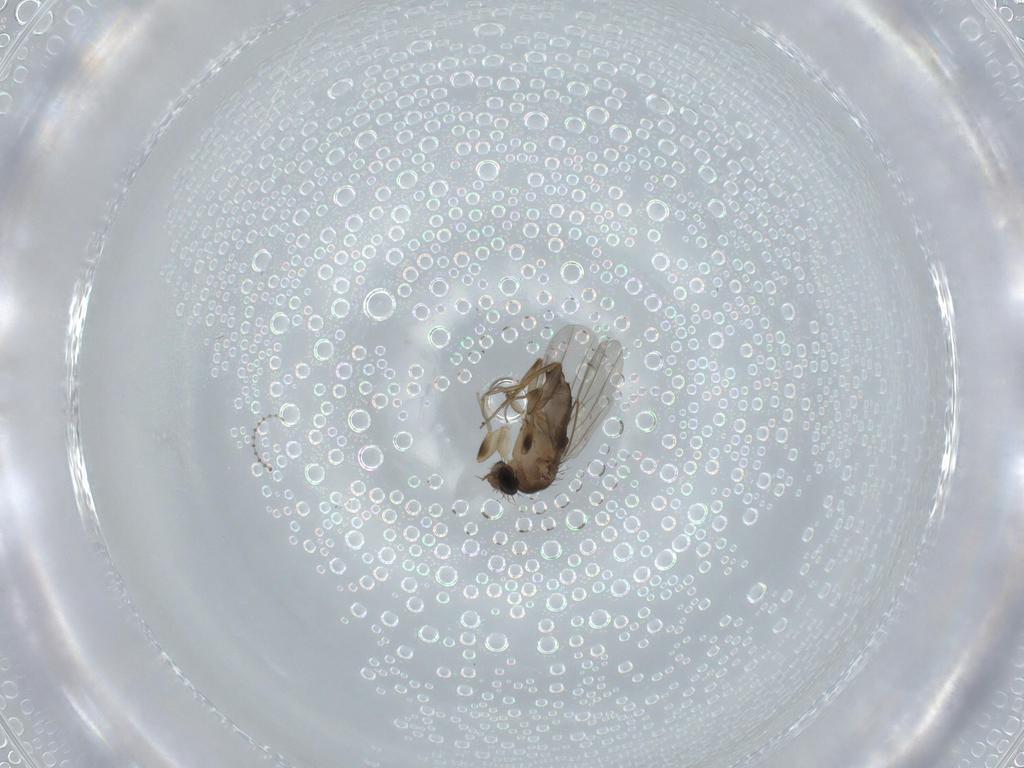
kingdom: Animalia
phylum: Arthropoda
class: Insecta
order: Diptera
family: Phoridae
